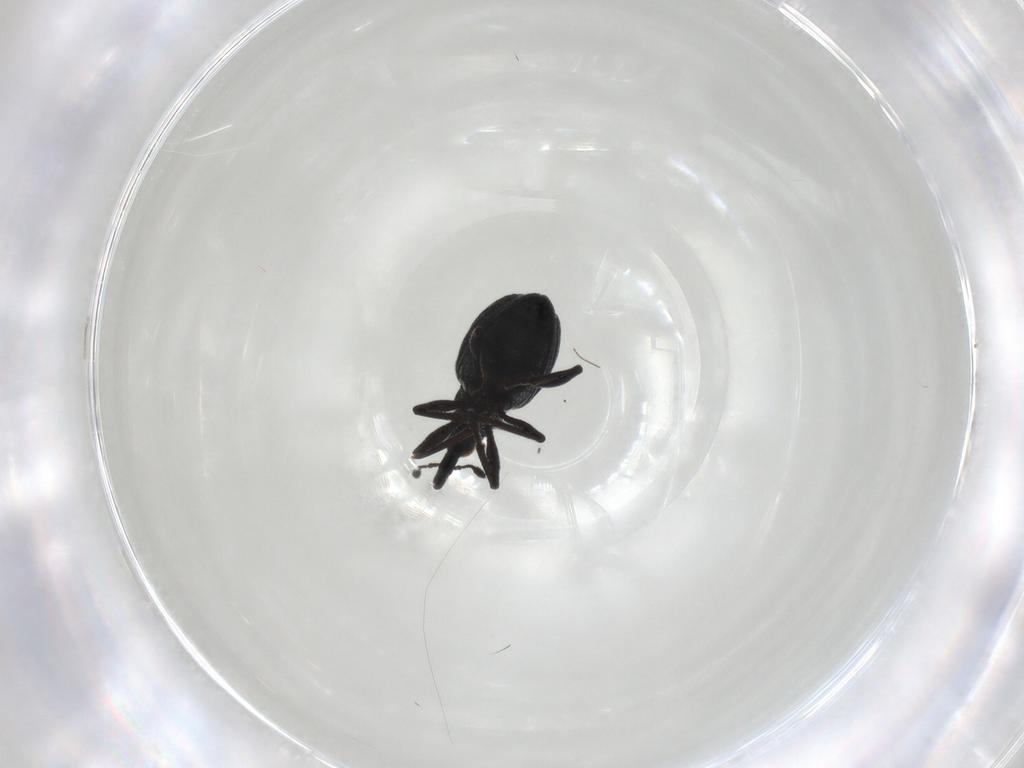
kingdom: Animalia
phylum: Arthropoda
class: Insecta
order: Coleoptera
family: Brentidae
